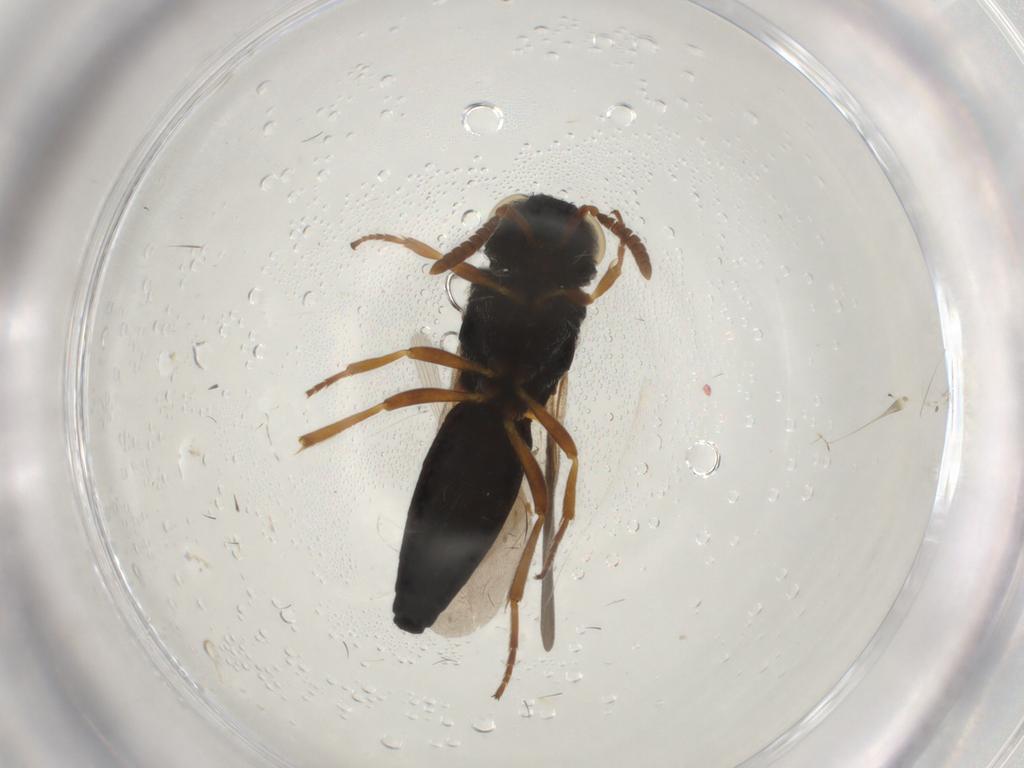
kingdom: Animalia
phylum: Arthropoda
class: Insecta
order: Hymenoptera
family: Scelionidae
